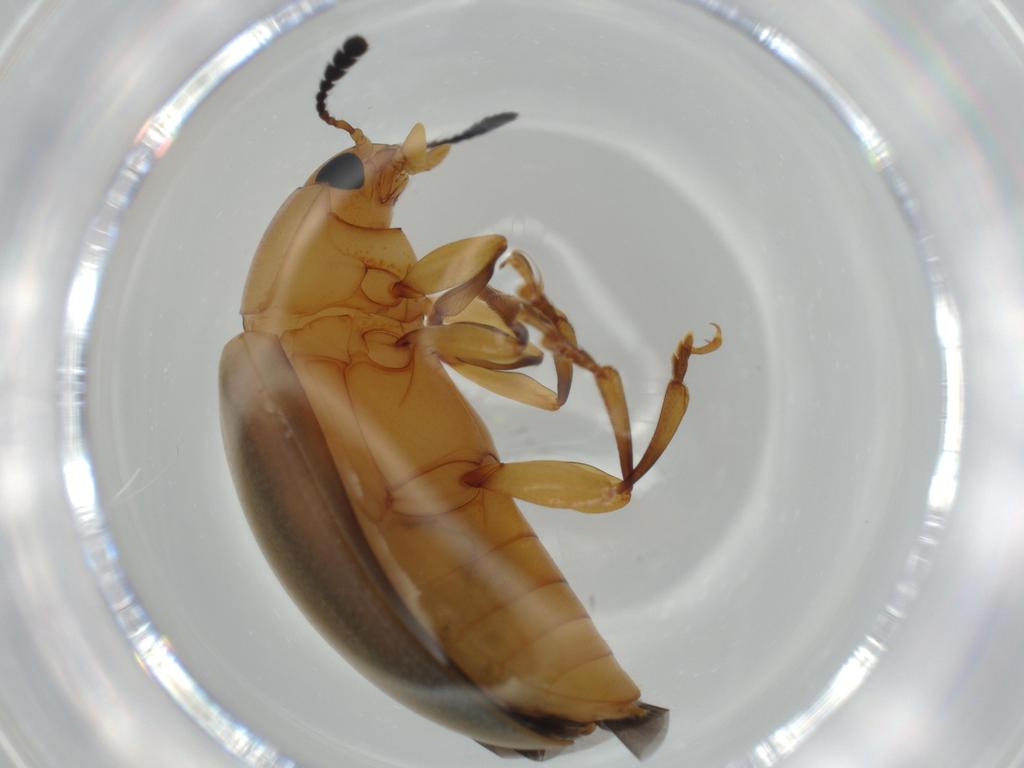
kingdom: Animalia
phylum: Arthropoda
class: Insecta
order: Coleoptera
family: Erotylidae
